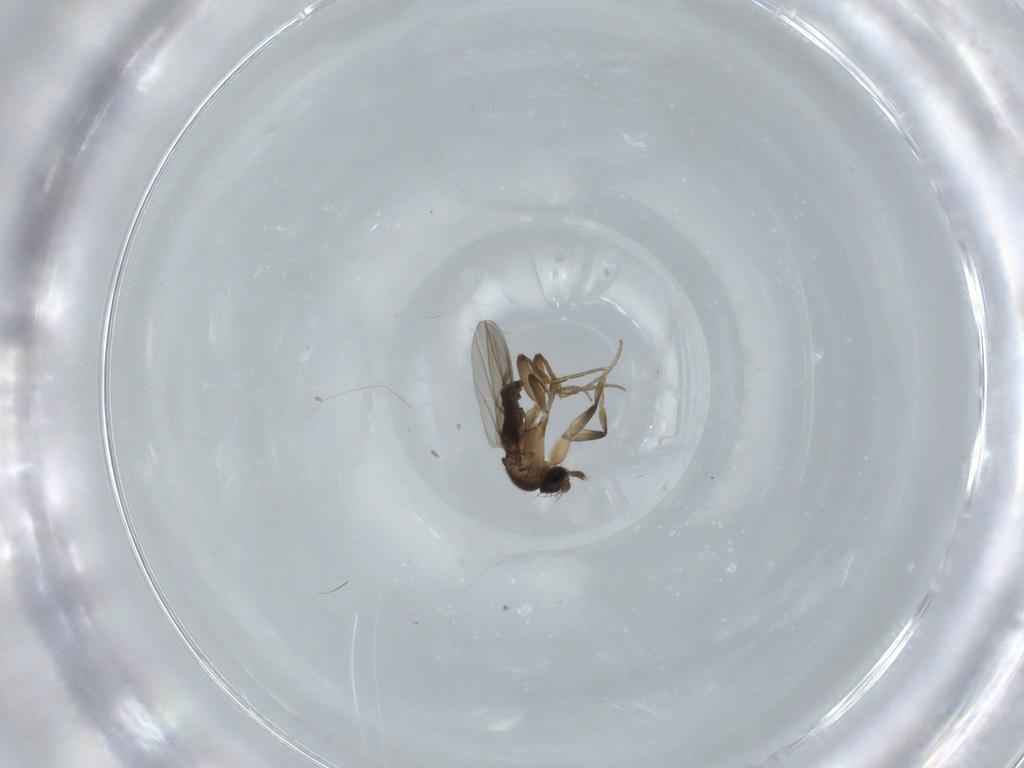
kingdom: Animalia
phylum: Arthropoda
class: Insecta
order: Diptera
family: Phoridae
